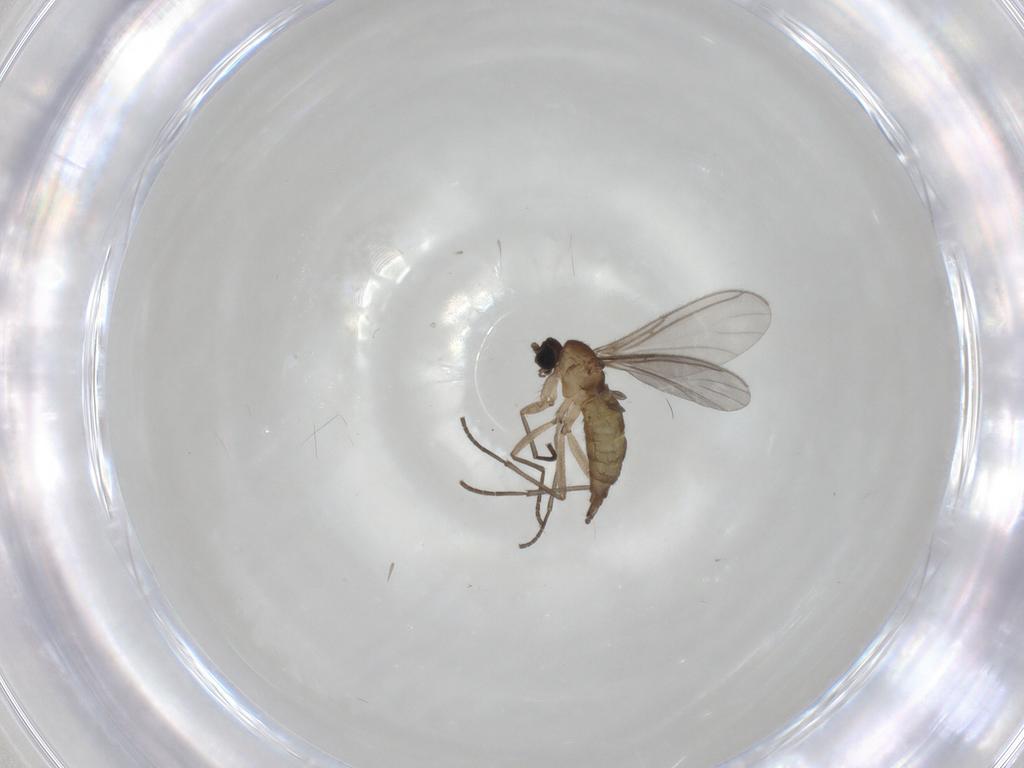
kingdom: Animalia
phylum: Arthropoda
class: Insecta
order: Diptera
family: Sciaridae
